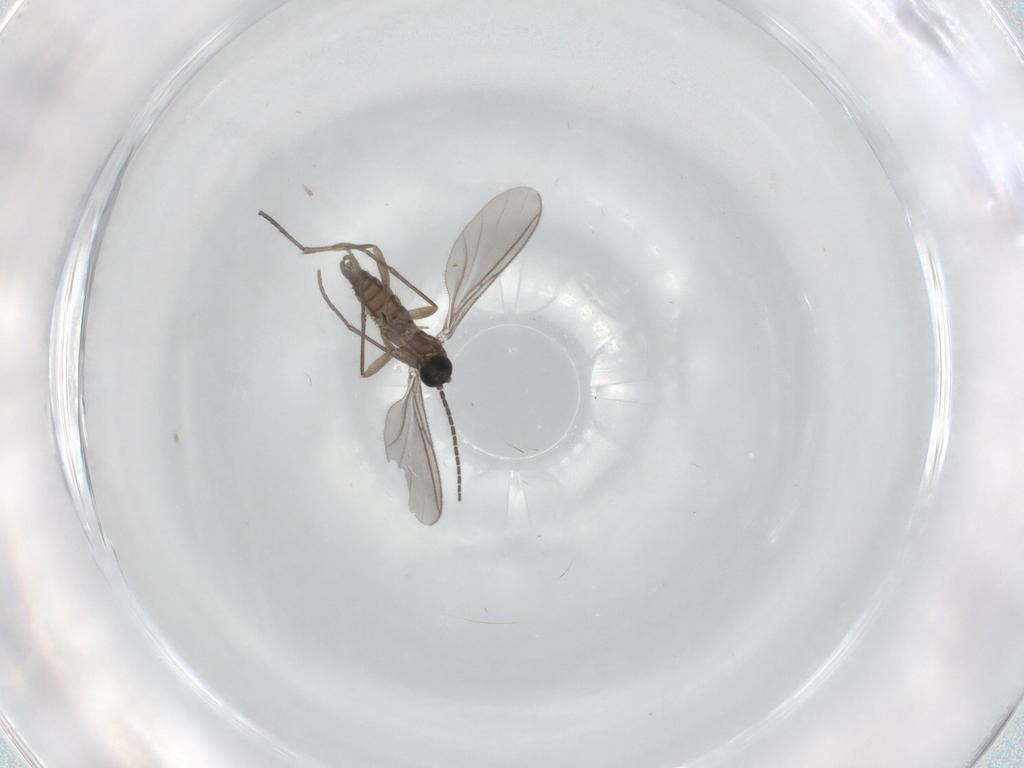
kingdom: Animalia
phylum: Arthropoda
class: Insecta
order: Diptera
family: Sciaridae
